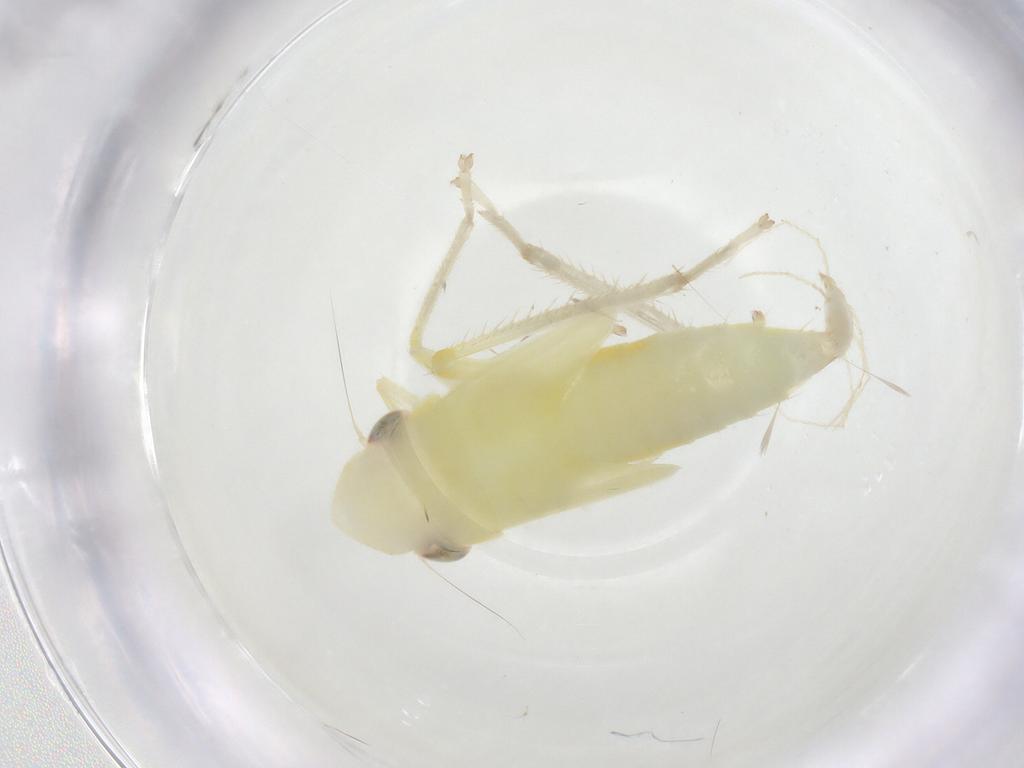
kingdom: Animalia
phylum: Arthropoda
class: Insecta
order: Hemiptera
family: Cicadellidae
